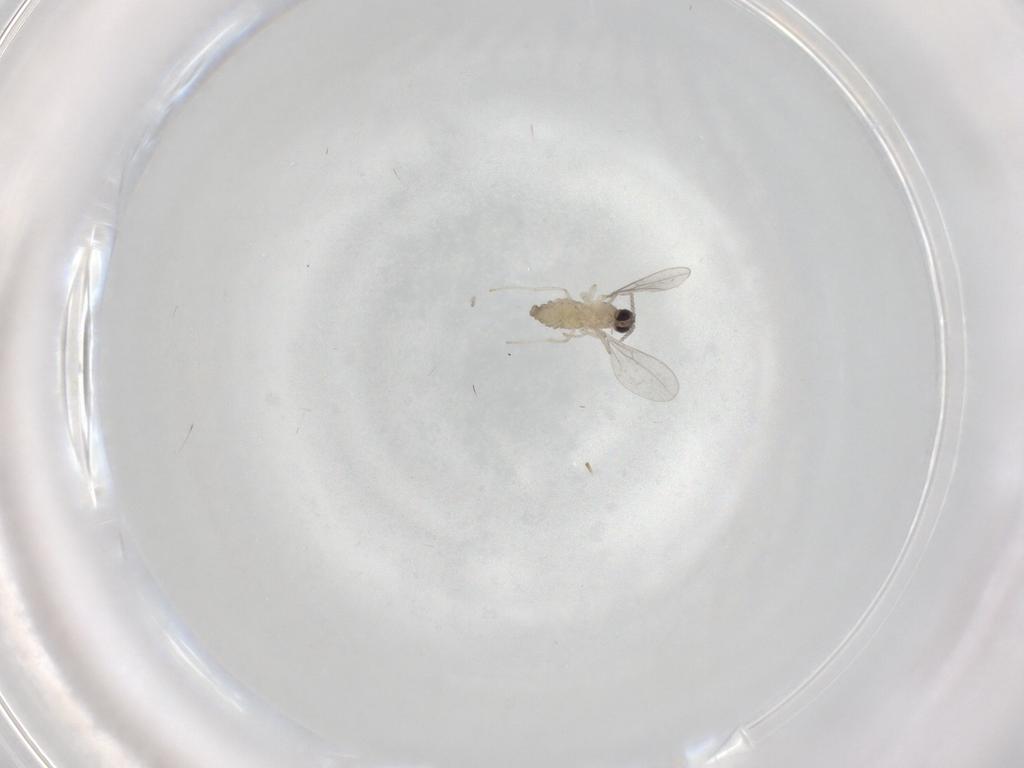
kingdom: Animalia
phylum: Arthropoda
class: Insecta
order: Diptera
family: Cecidomyiidae
